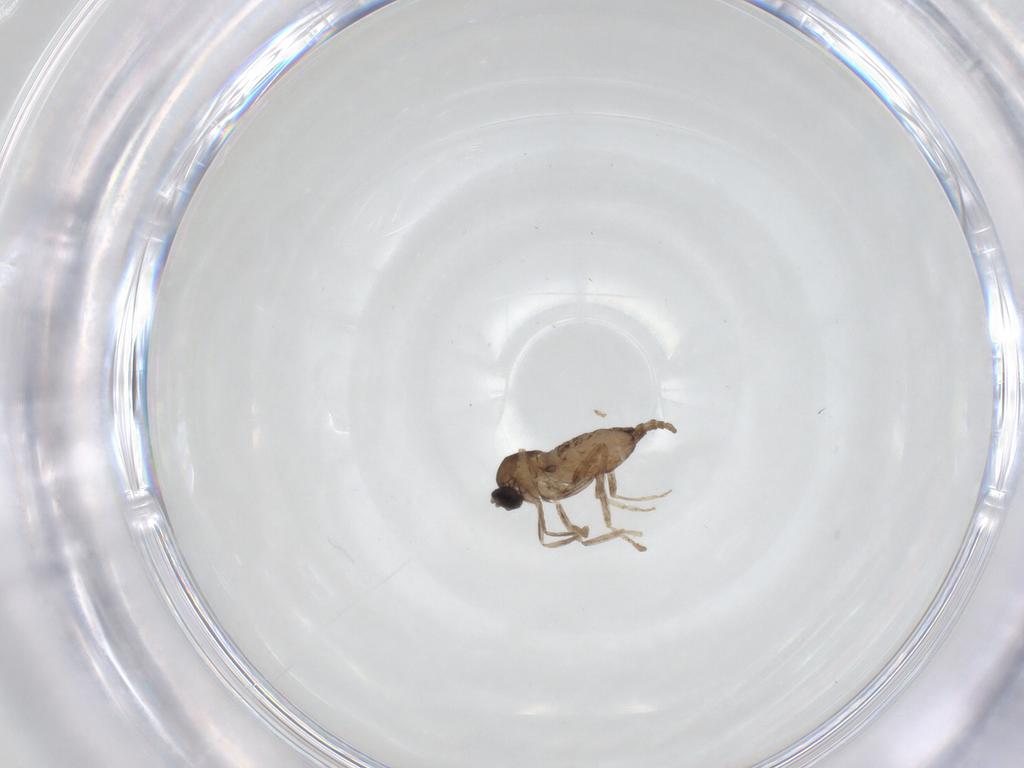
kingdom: Animalia
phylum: Arthropoda
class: Insecta
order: Diptera
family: Cecidomyiidae
